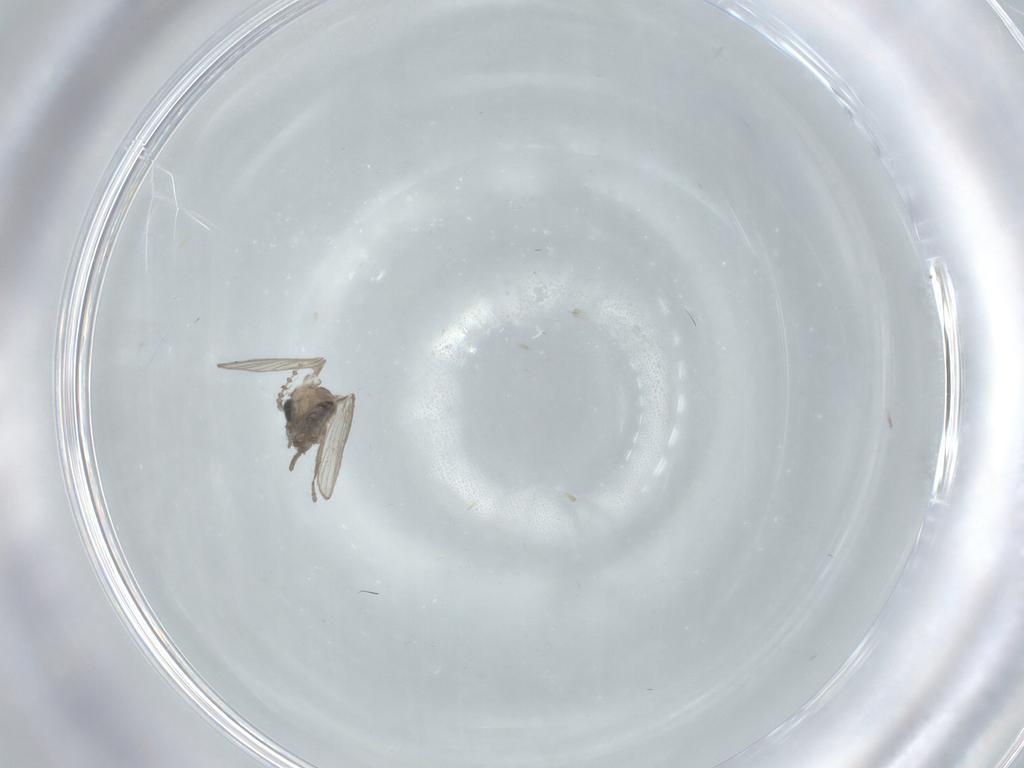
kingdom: Animalia
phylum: Arthropoda
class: Insecta
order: Diptera
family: Psychodidae
